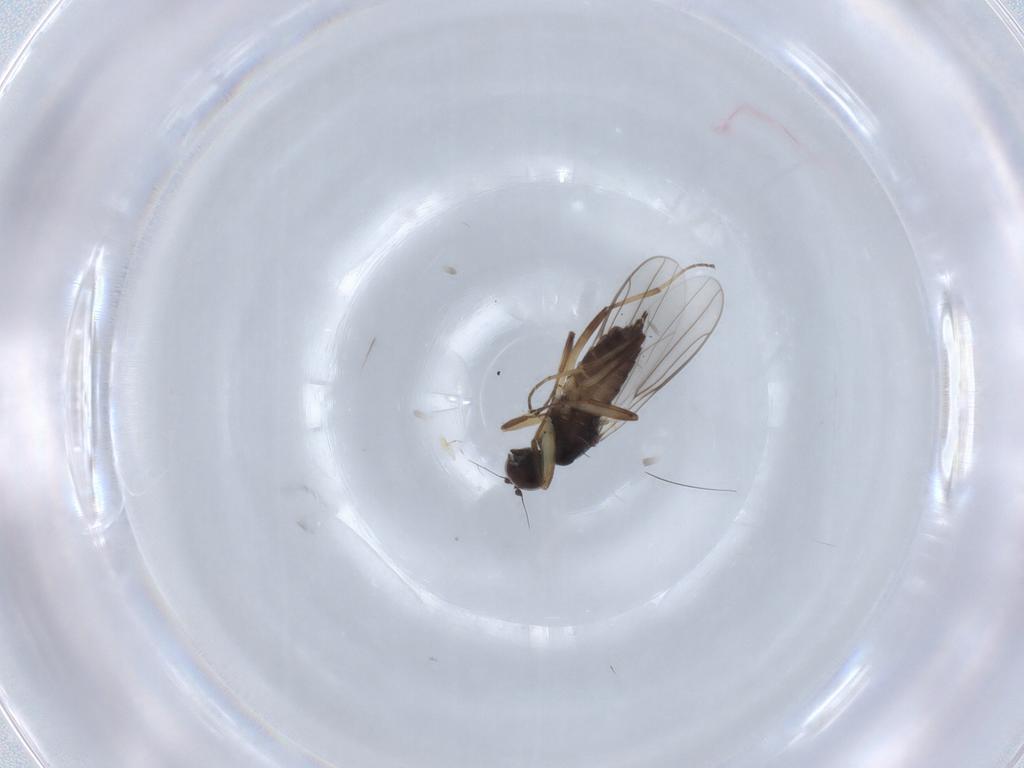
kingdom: Animalia
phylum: Arthropoda
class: Insecta
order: Diptera
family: Hybotidae
